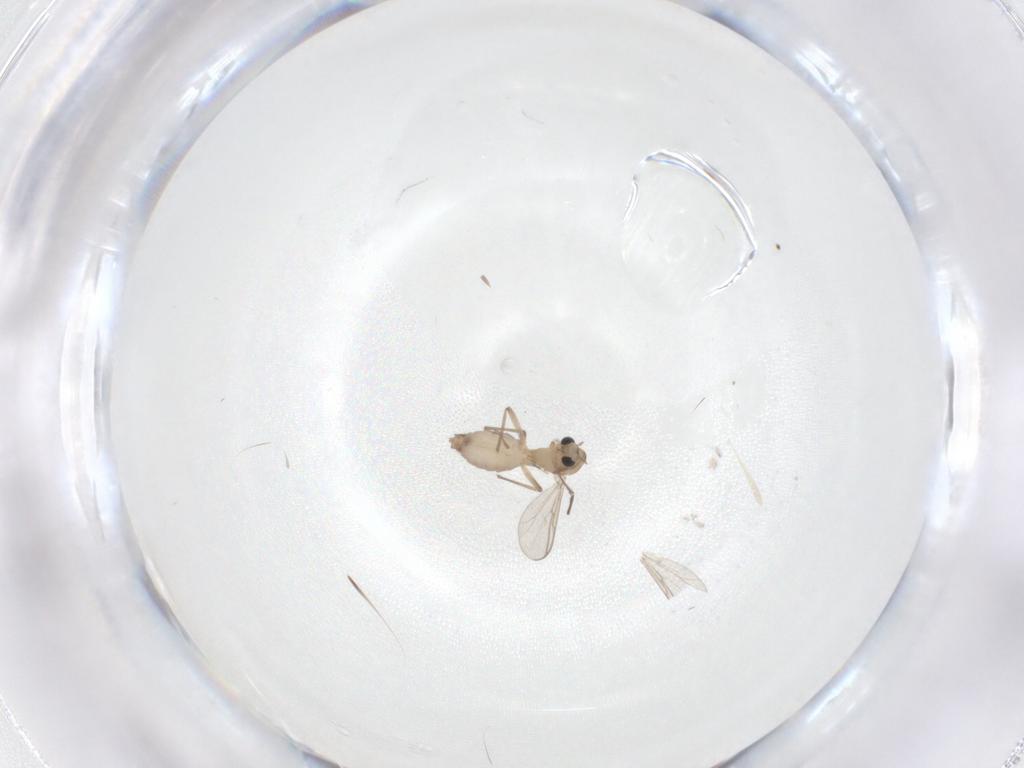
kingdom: Animalia
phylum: Arthropoda
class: Insecta
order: Diptera
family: Chironomidae
